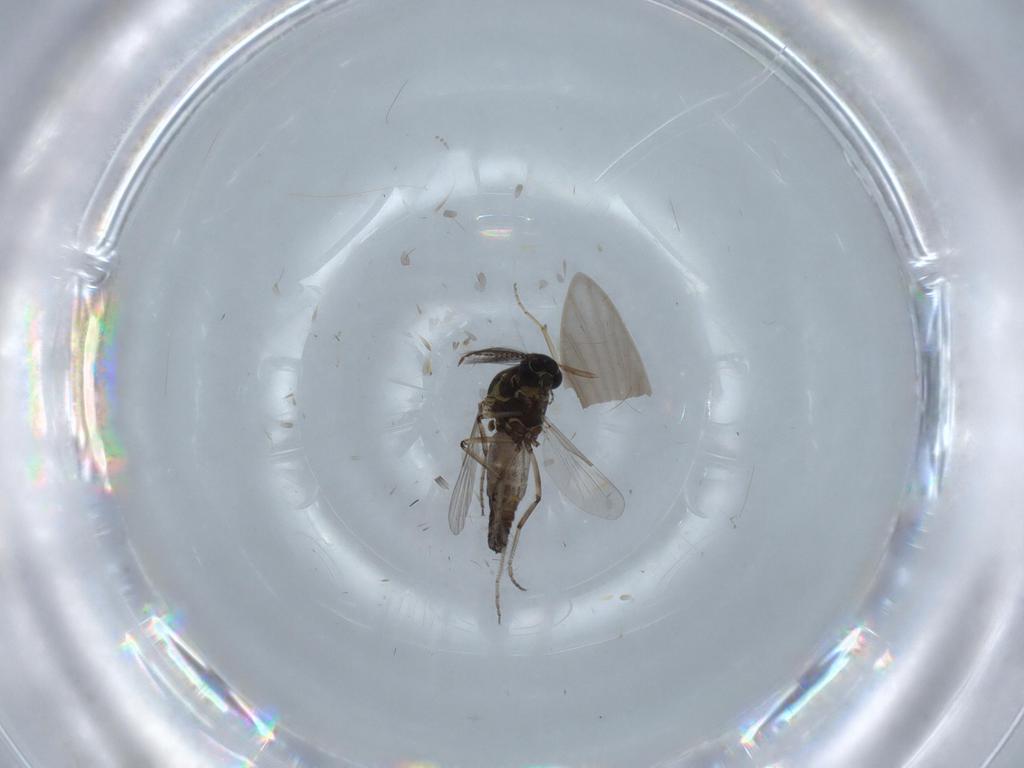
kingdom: Animalia
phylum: Arthropoda
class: Insecta
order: Diptera
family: Ceratopogonidae
